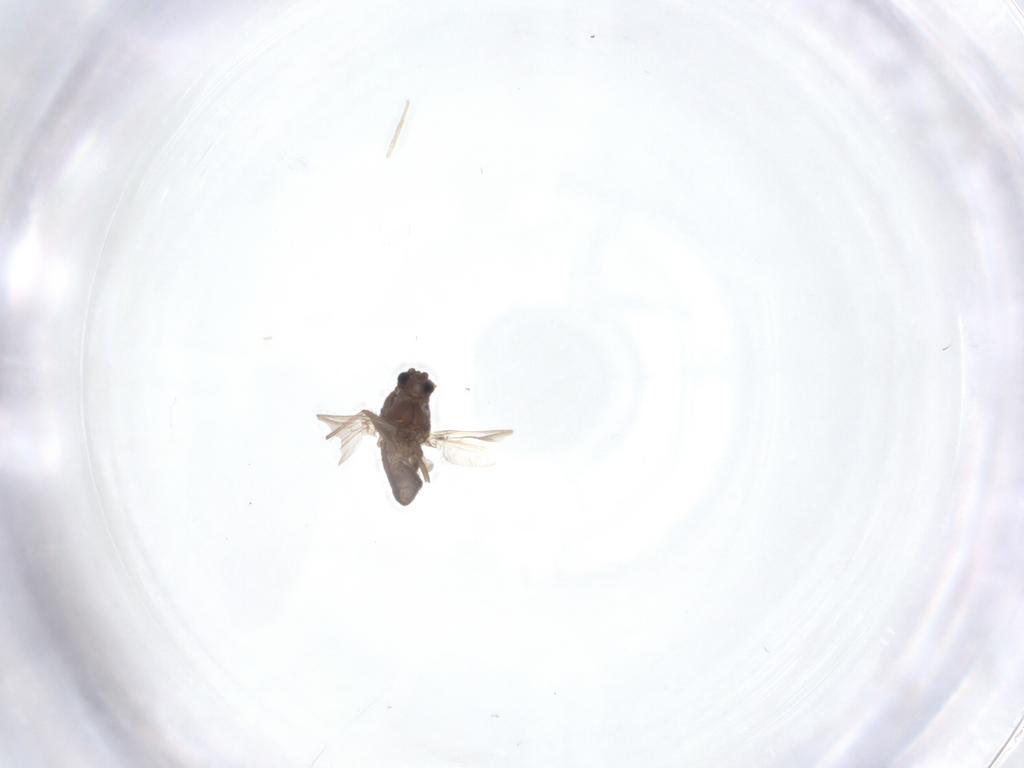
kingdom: Animalia
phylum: Arthropoda
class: Insecta
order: Diptera
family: Chironomidae
